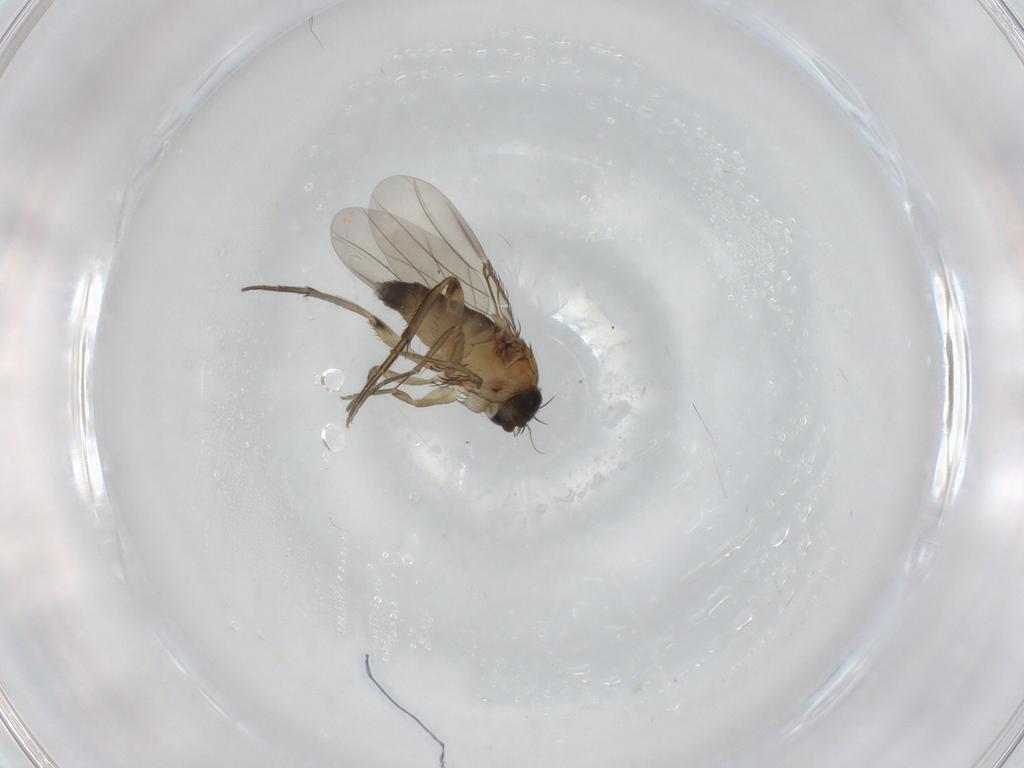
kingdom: Animalia
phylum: Arthropoda
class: Insecta
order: Diptera
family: Phoridae
